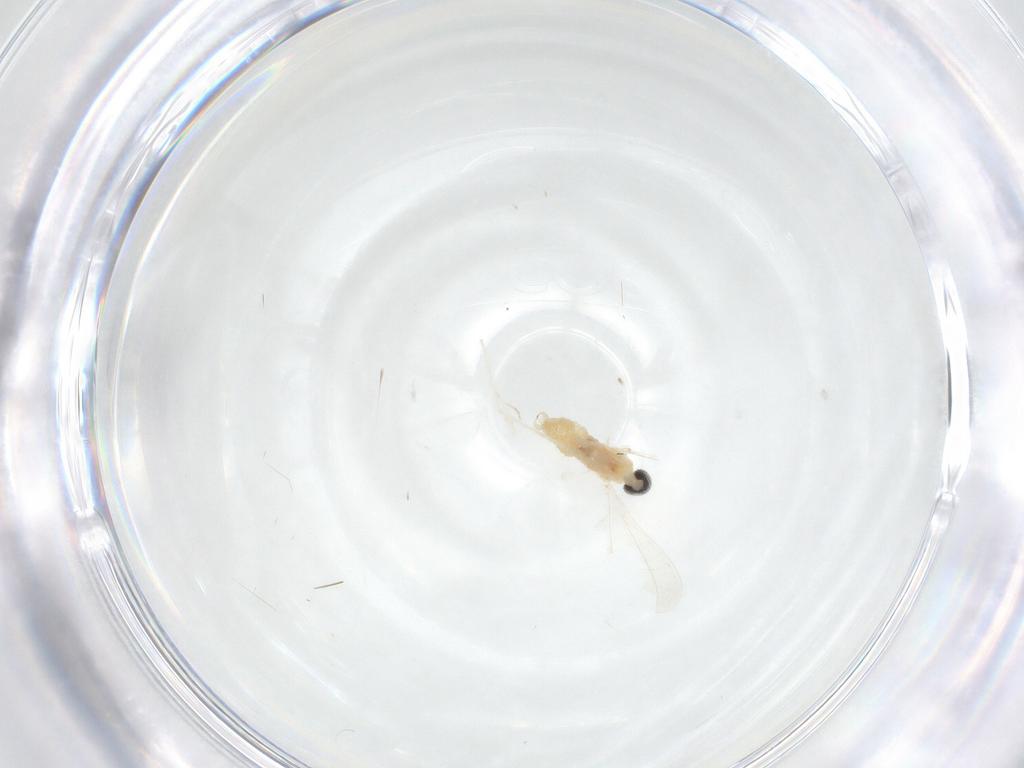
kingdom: Animalia
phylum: Arthropoda
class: Insecta
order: Diptera
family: Cecidomyiidae
